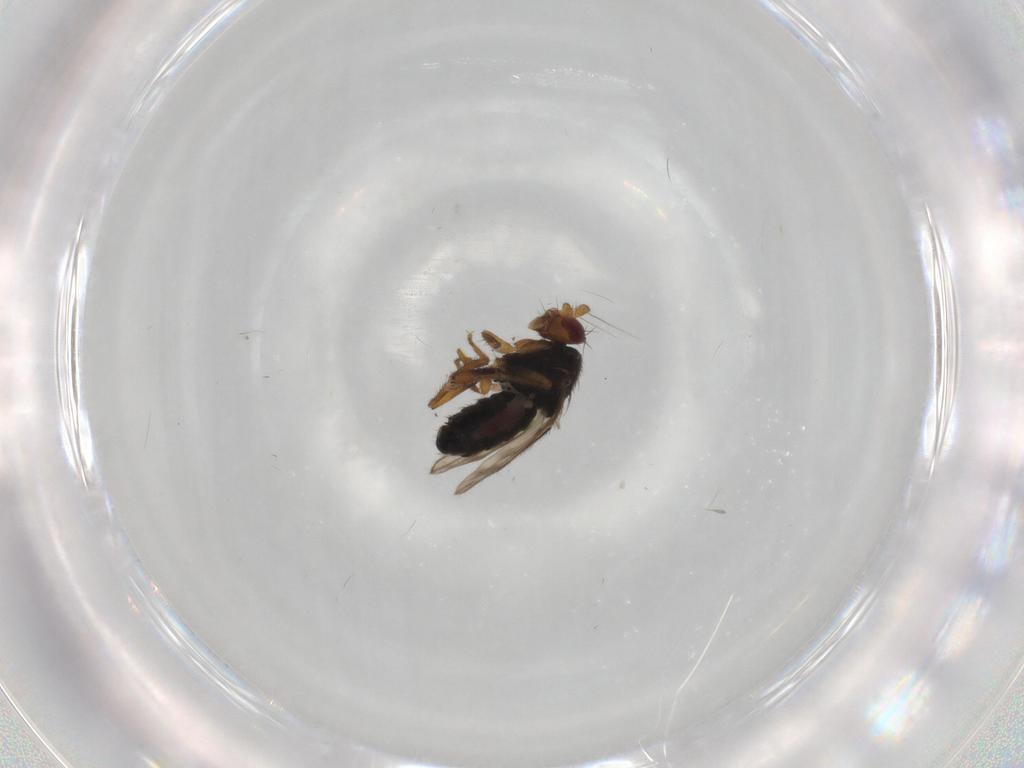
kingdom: Animalia
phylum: Arthropoda
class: Insecta
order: Diptera
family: Sphaeroceridae
